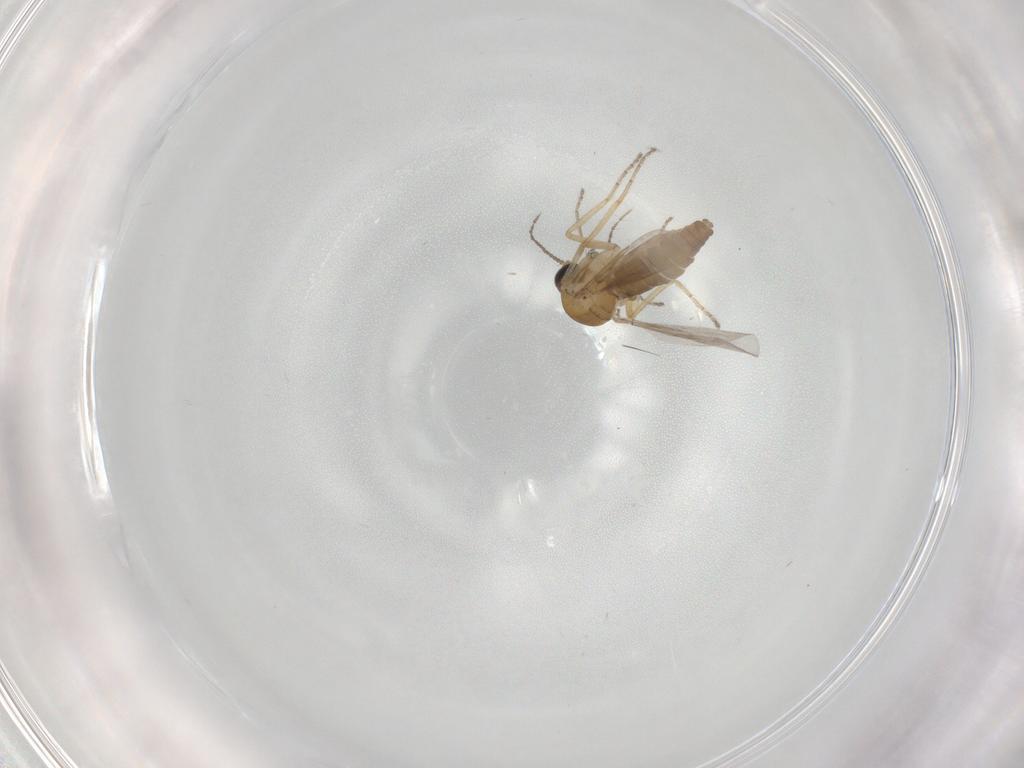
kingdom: Animalia
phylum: Arthropoda
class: Insecta
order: Diptera
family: Ceratopogonidae
